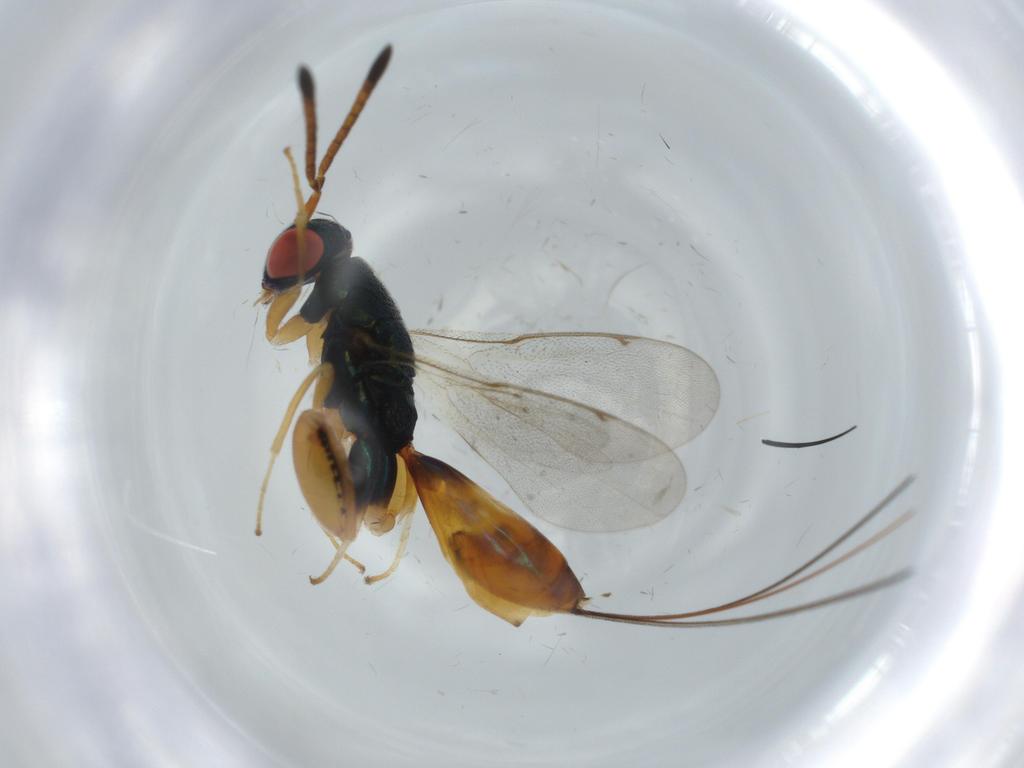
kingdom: Animalia
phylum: Arthropoda
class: Insecta
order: Hymenoptera
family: Torymidae
